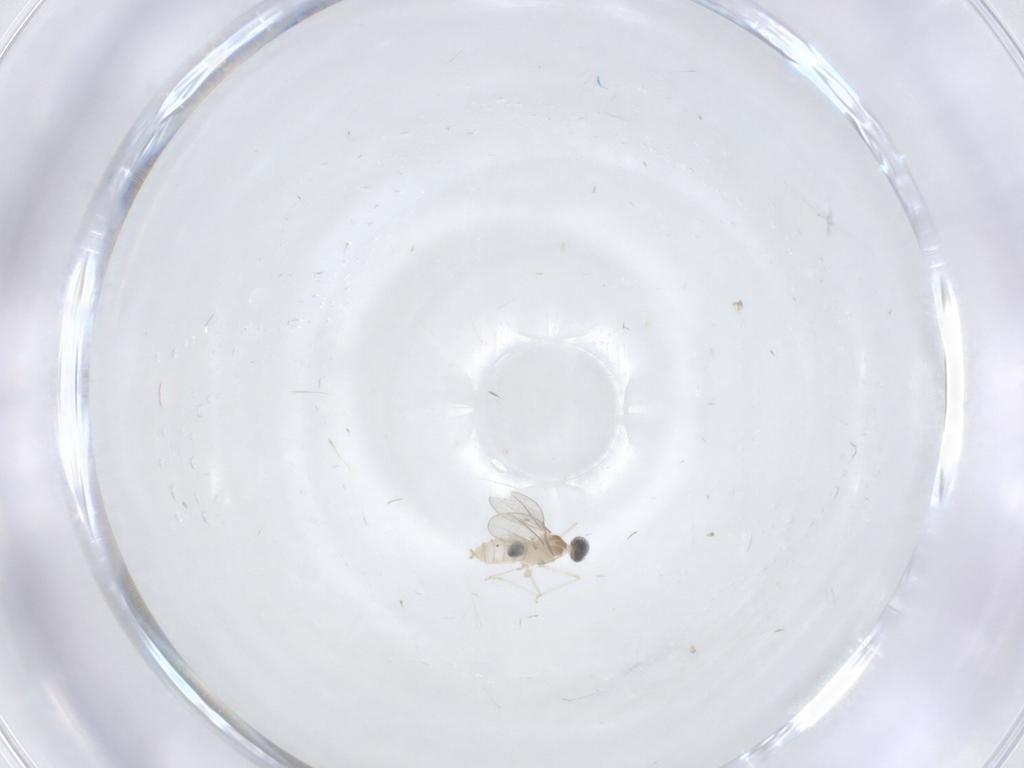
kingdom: Animalia
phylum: Arthropoda
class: Insecta
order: Diptera
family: Cecidomyiidae
